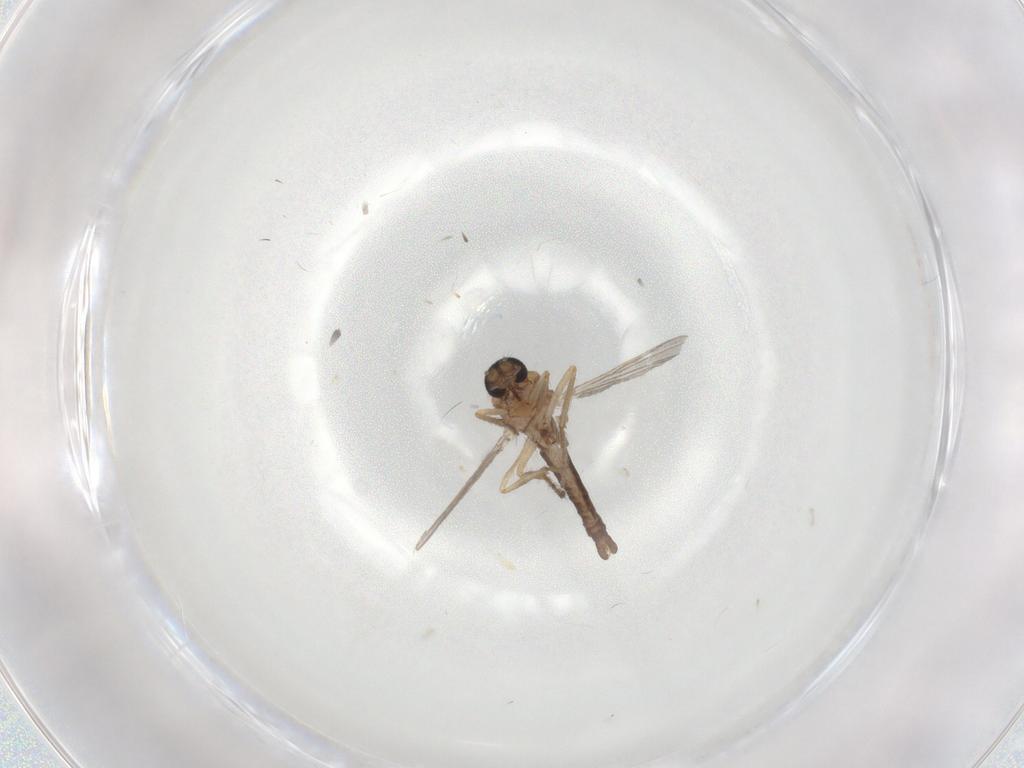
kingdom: Animalia
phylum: Arthropoda
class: Insecta
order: Diptera
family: Ceratopogonidae
